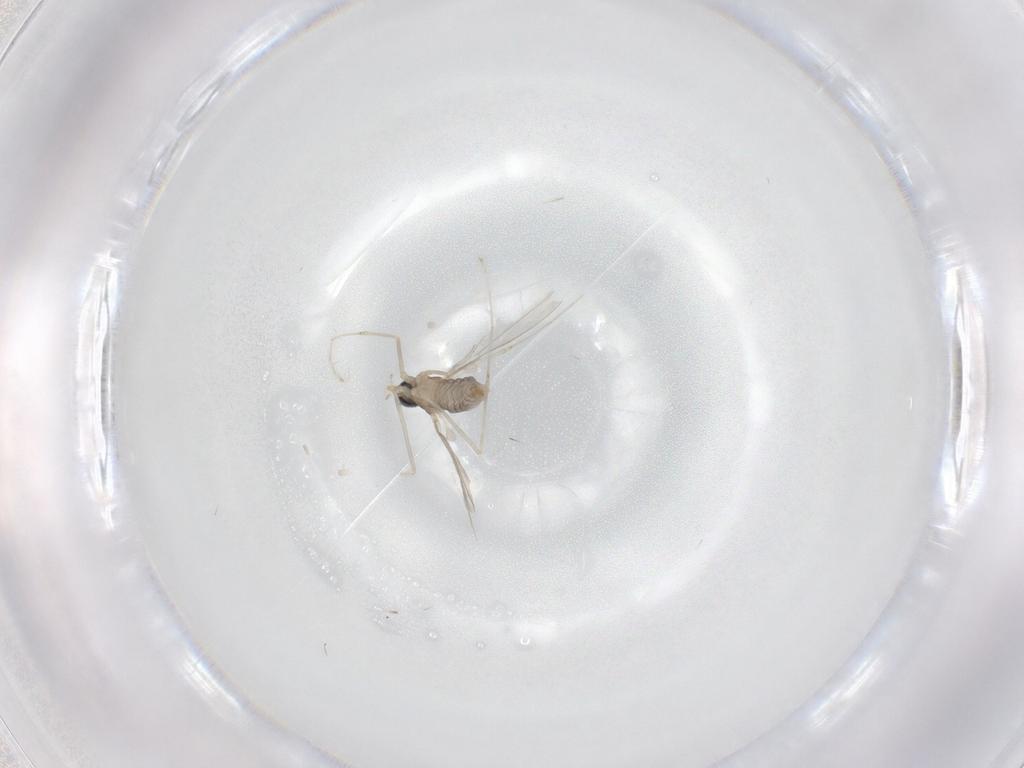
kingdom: Animalia
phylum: Arthropoda
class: Insecta
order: Diptera
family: Cecidomyiidae
